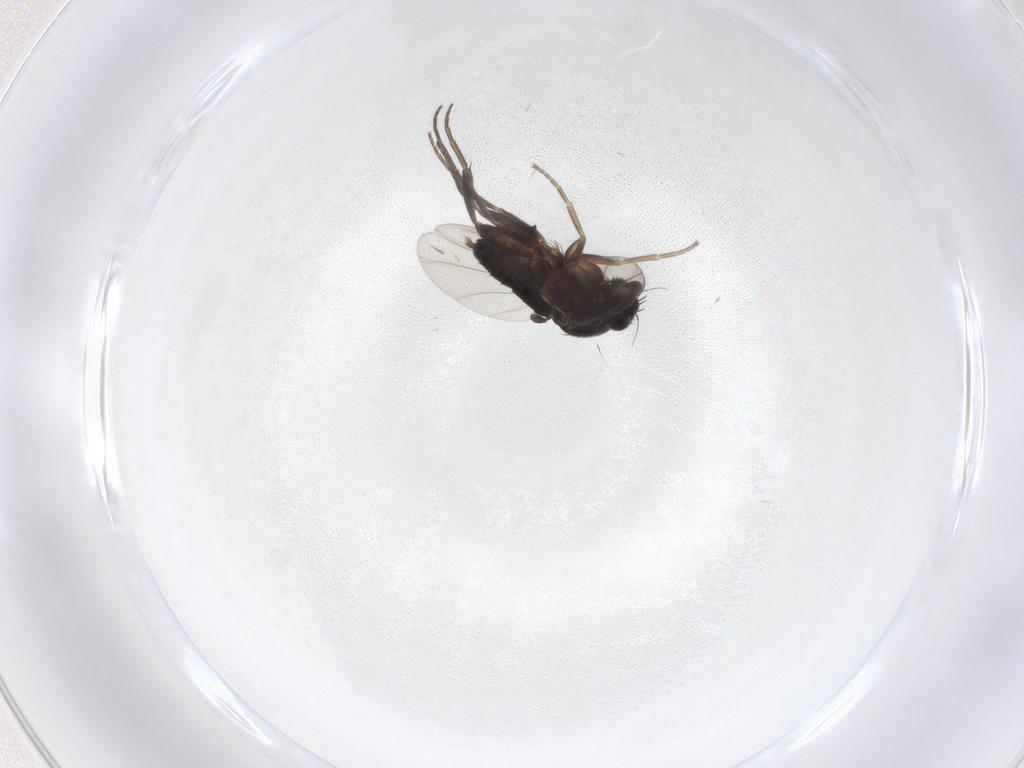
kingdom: Animalia
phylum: Arthropoda
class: Insecta
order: Diptera
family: Phoridae
